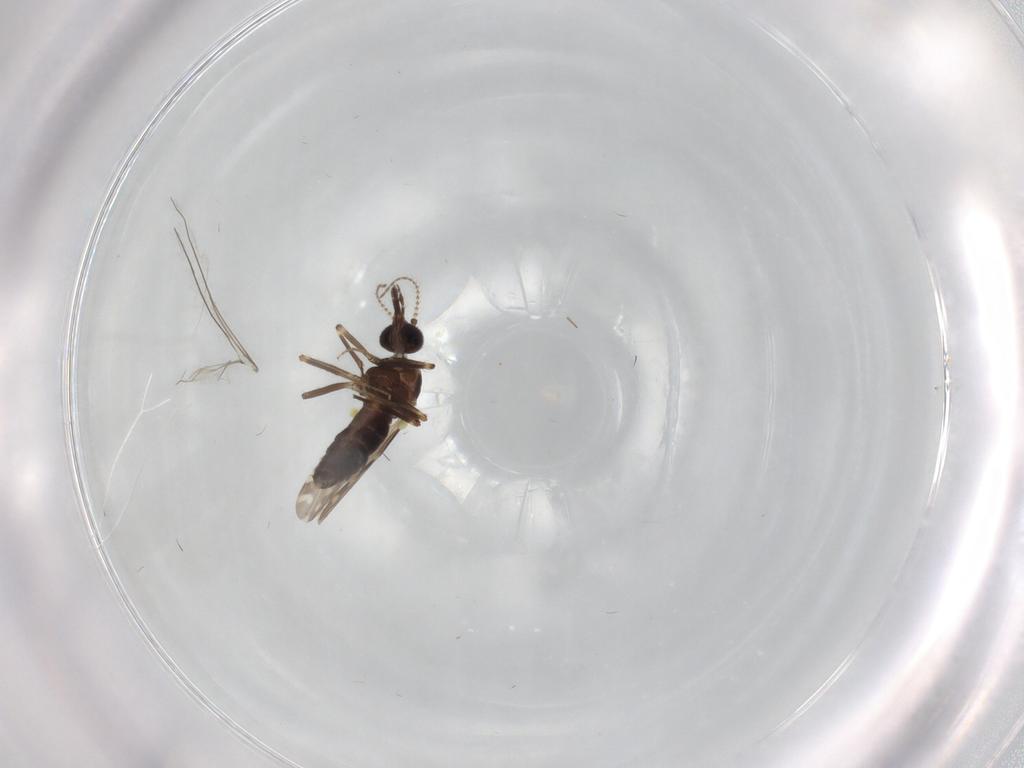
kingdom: Animalia
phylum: Arthropoda
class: Insecta
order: Diptera
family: Ceratopogonidae
